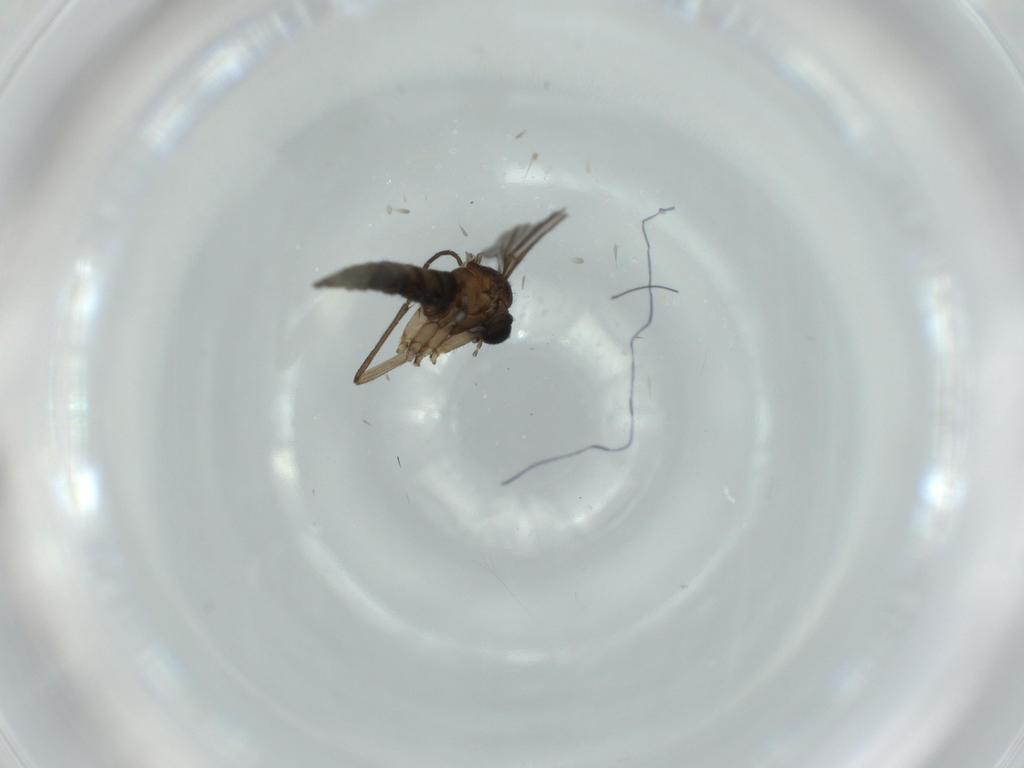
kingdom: Animalia
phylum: Arthropoda
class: Insecta
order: Diptera
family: Sciaridae
